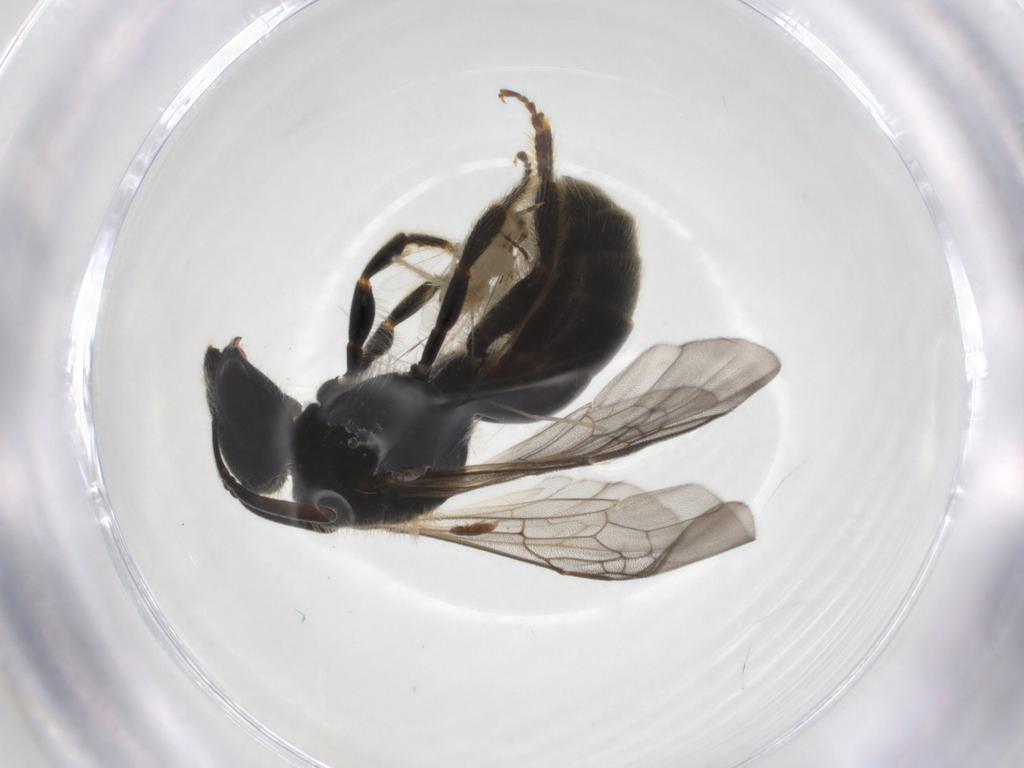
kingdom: Animalia
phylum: Arthropoda
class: Insecta
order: Hymenoptera
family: Halictidae
